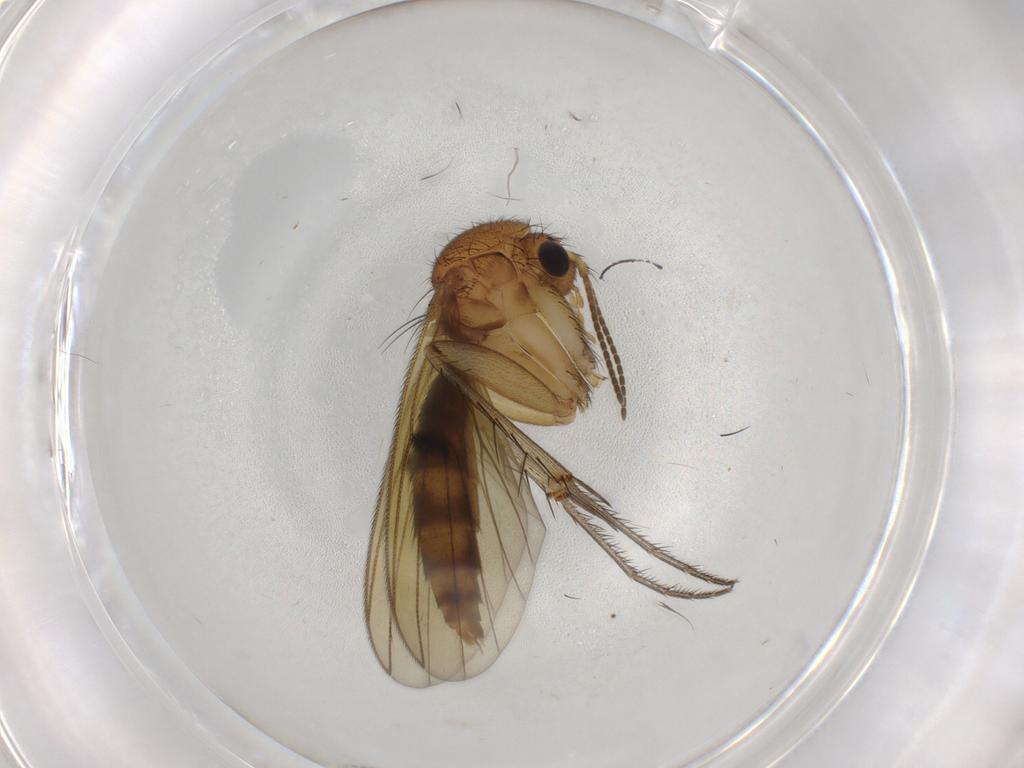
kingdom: Animalia
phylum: Arthropoda
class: Insecta
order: Diptera
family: Mycetophilidae
